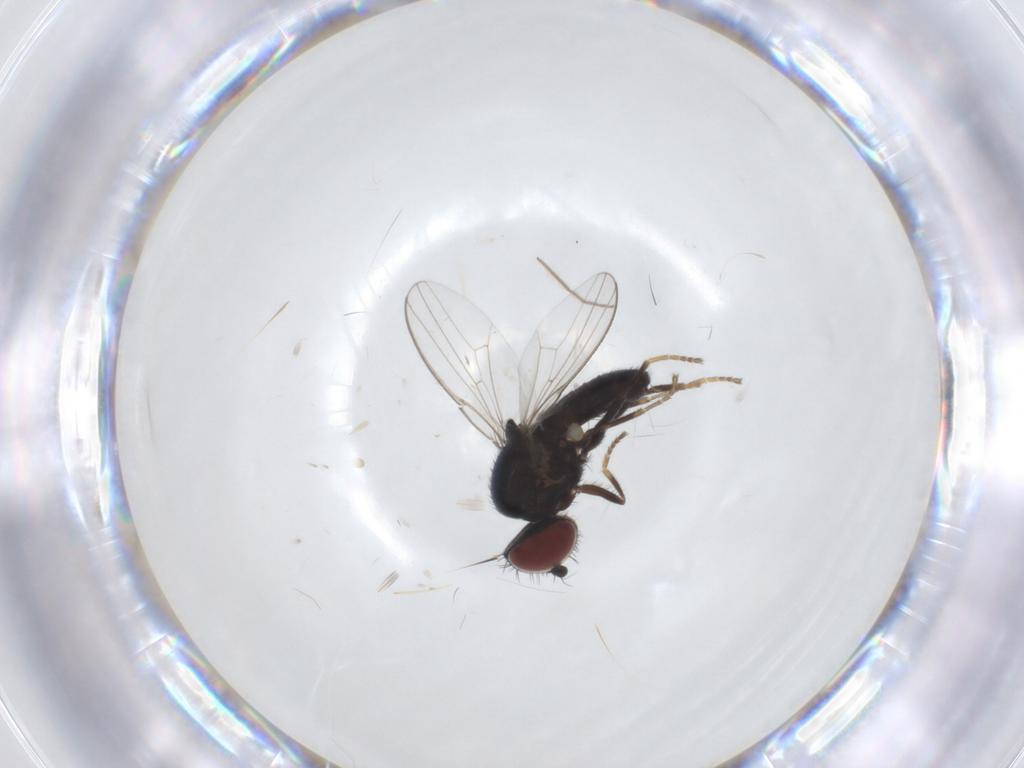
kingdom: Animalia
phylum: Arthropoda
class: Insecta
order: Diptera
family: Chloropidae
